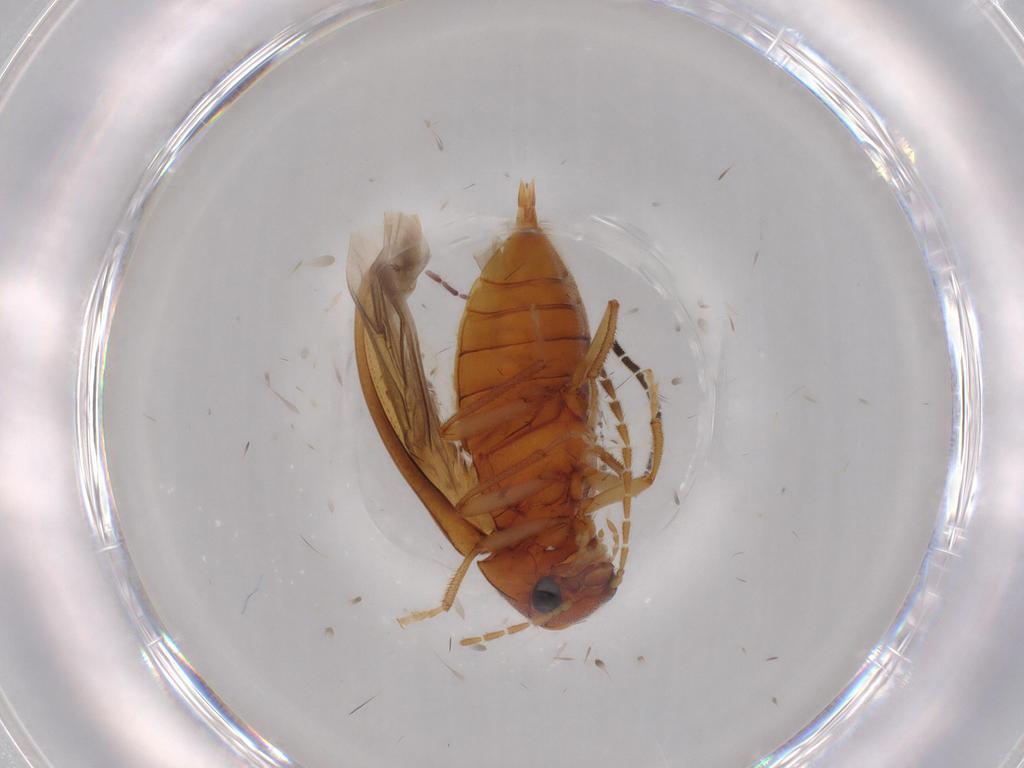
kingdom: Animalia
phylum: Arthropoda
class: Insecta
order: Coleoptera
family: Ptilodactylidae
